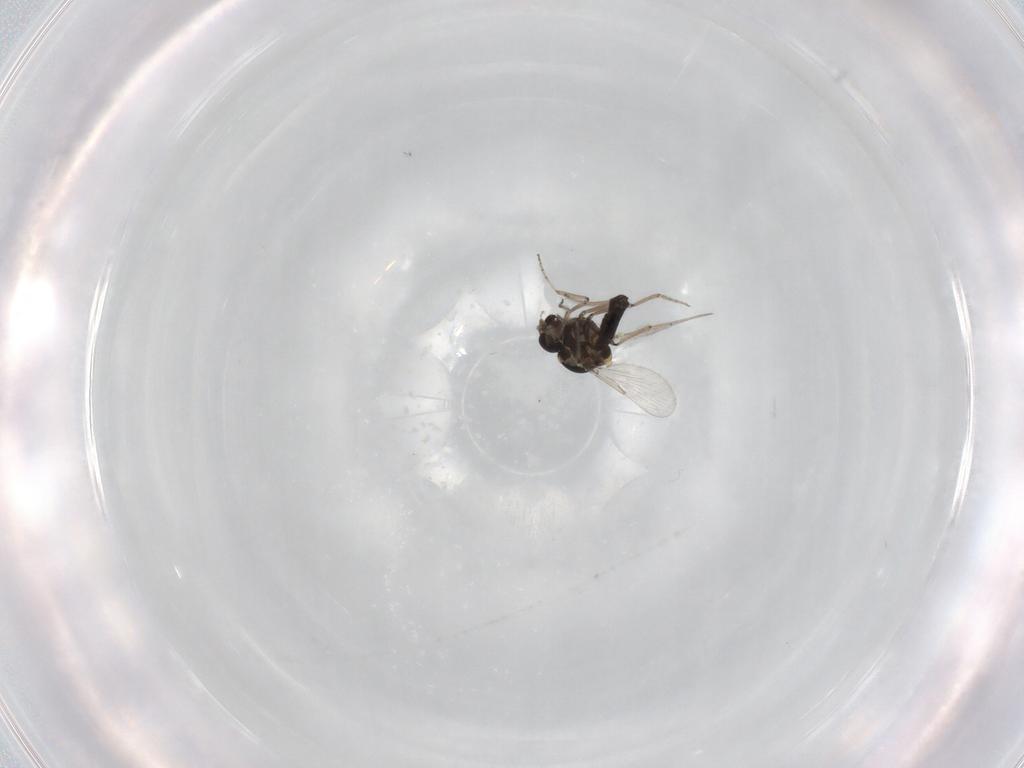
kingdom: Animalia
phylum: Arthropoda
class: Insecta
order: Diptera
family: Ceratopogonidae
